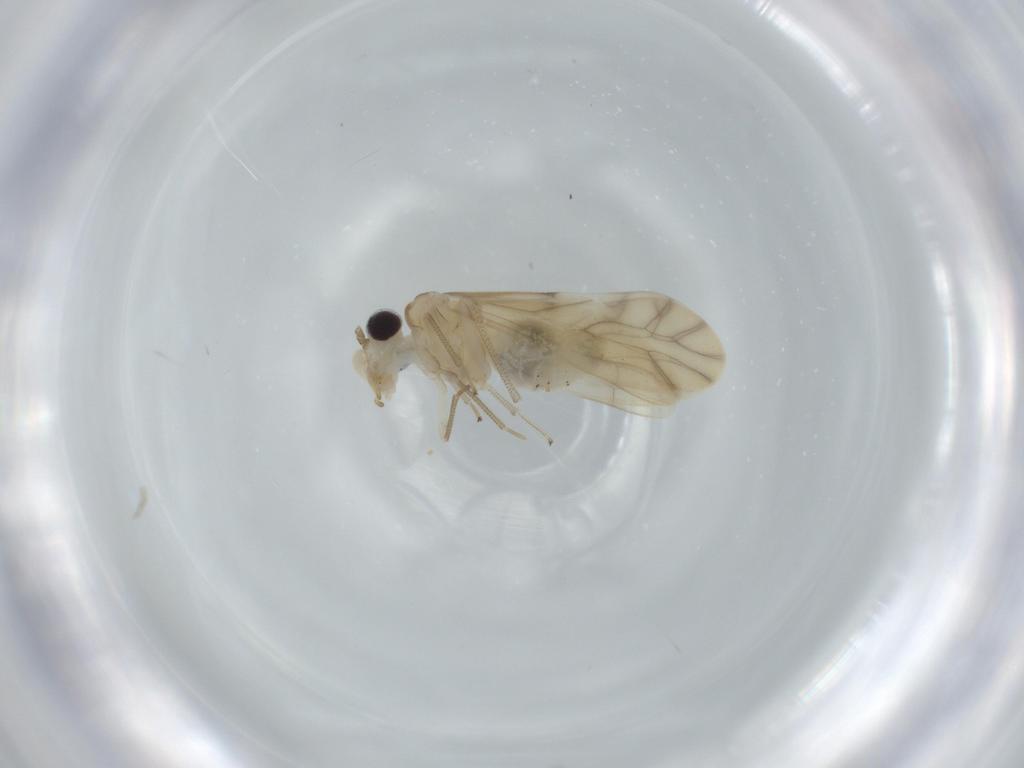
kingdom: Animalia
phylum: Arthropoda
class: Insecta
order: Psocodea
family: Caeciliusidae
